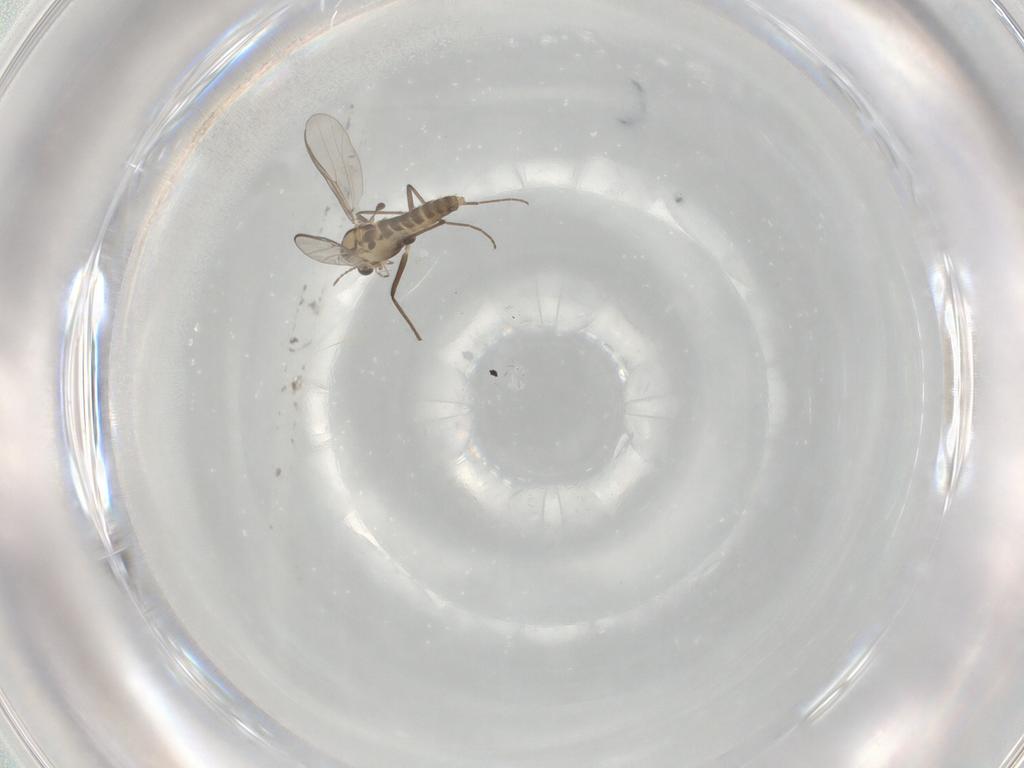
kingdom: Animalia
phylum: Arthropoda
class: Insecta
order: Diptera
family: Chironomidae
